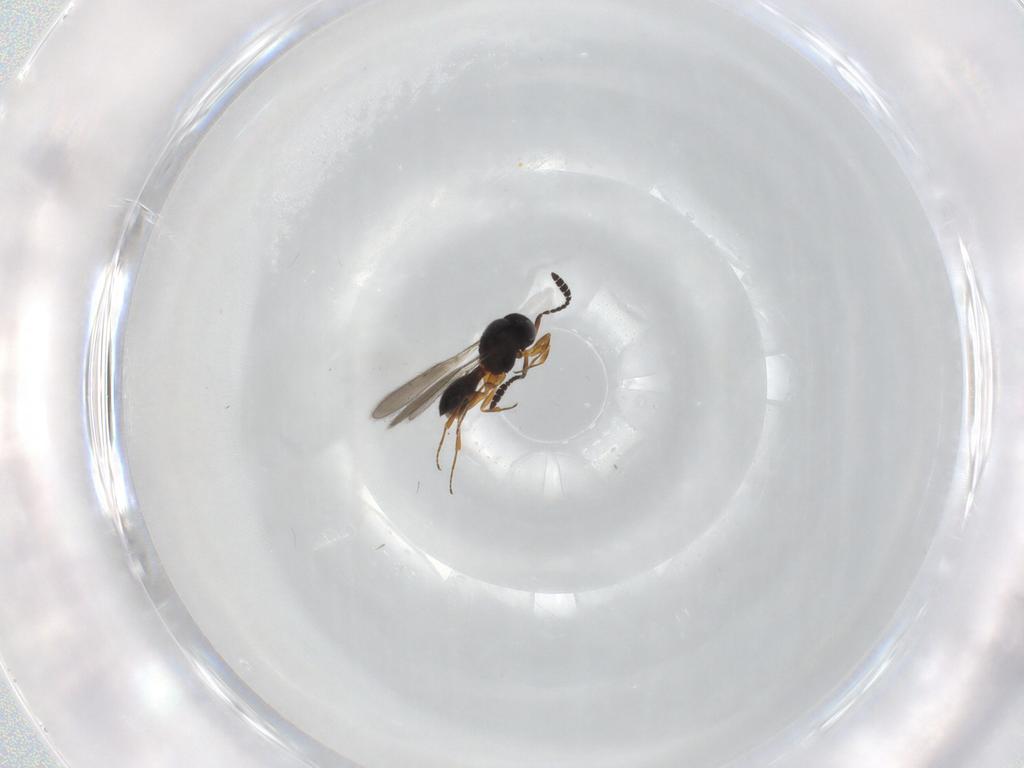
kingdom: Animalia
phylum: Arthropoda
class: Insecta
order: Hymenoptera
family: Scelionidae
